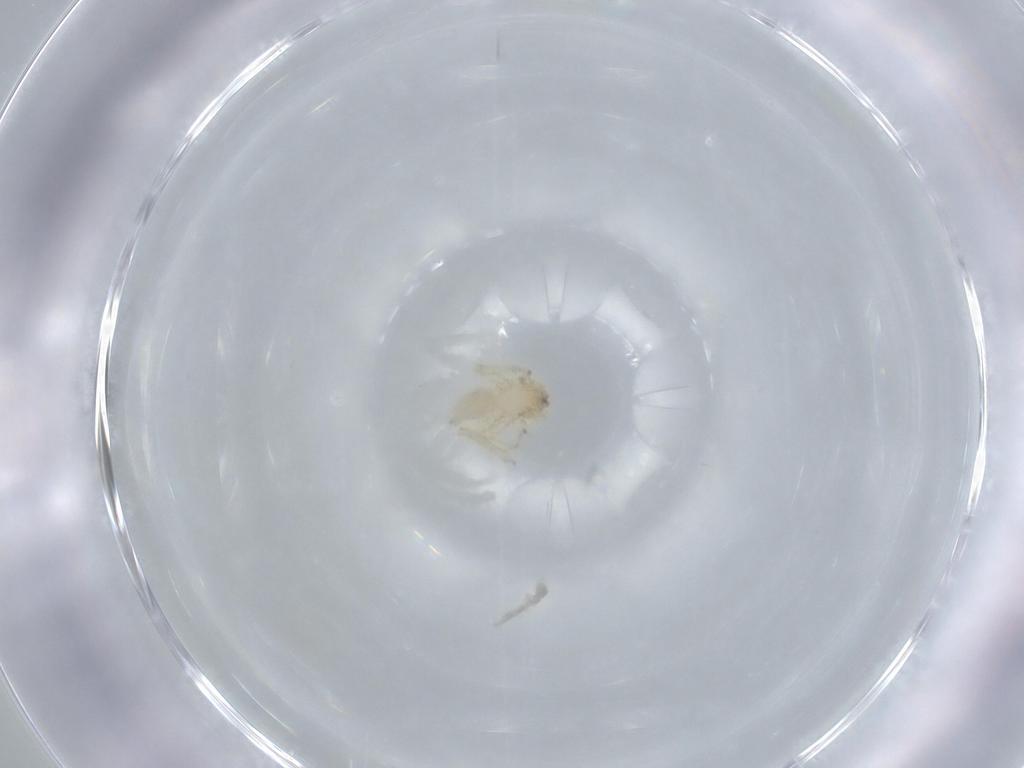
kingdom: Animalia
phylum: Arthropoda
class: Arachnida
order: Araneae
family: Oonopidae
